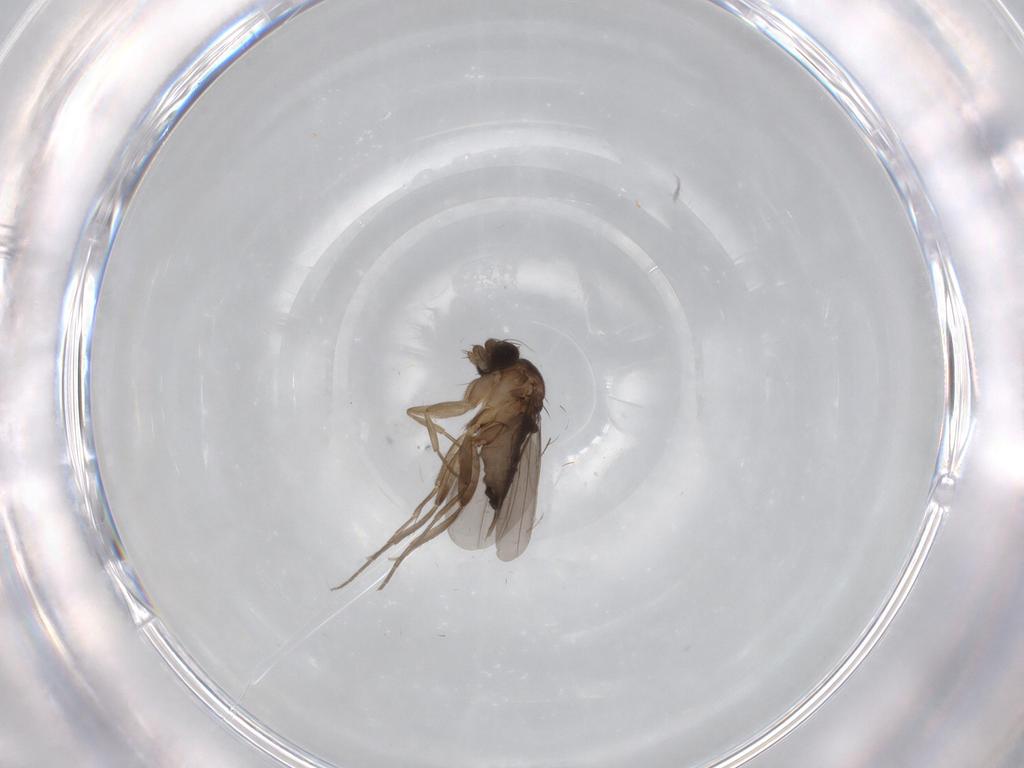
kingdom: Animalia
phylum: Arthropoda
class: Insecta
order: Diptera
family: Phoridae
